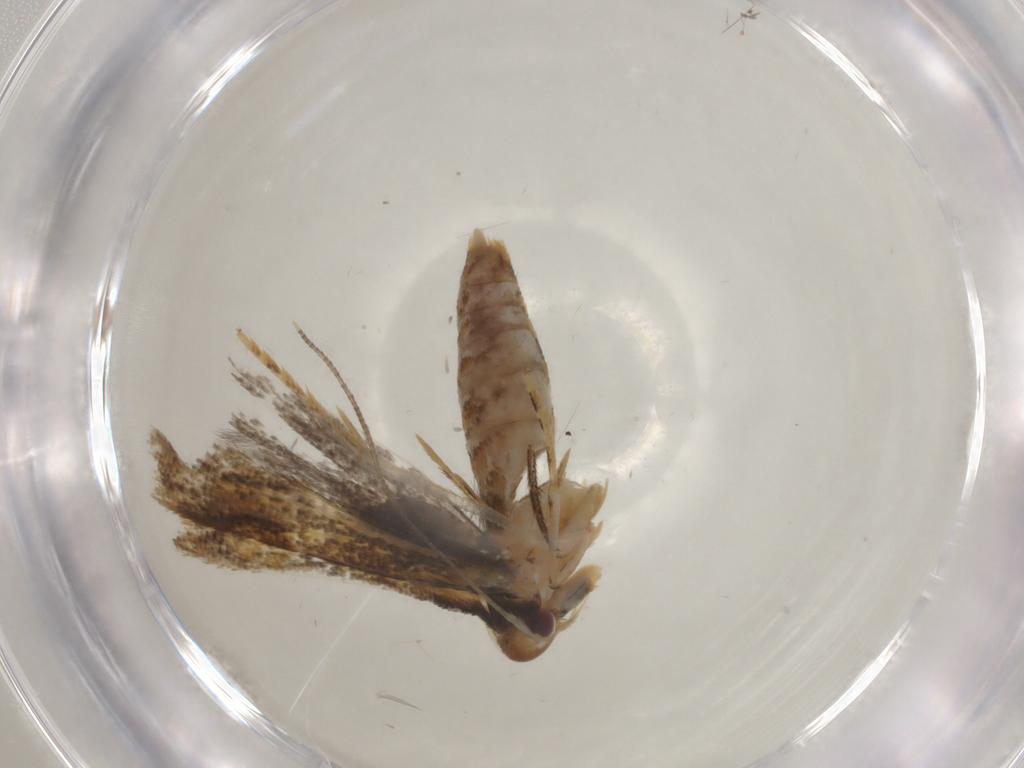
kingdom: Animalia
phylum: Arthropoda
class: Insecta
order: Lepidoptera
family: Momphidae
